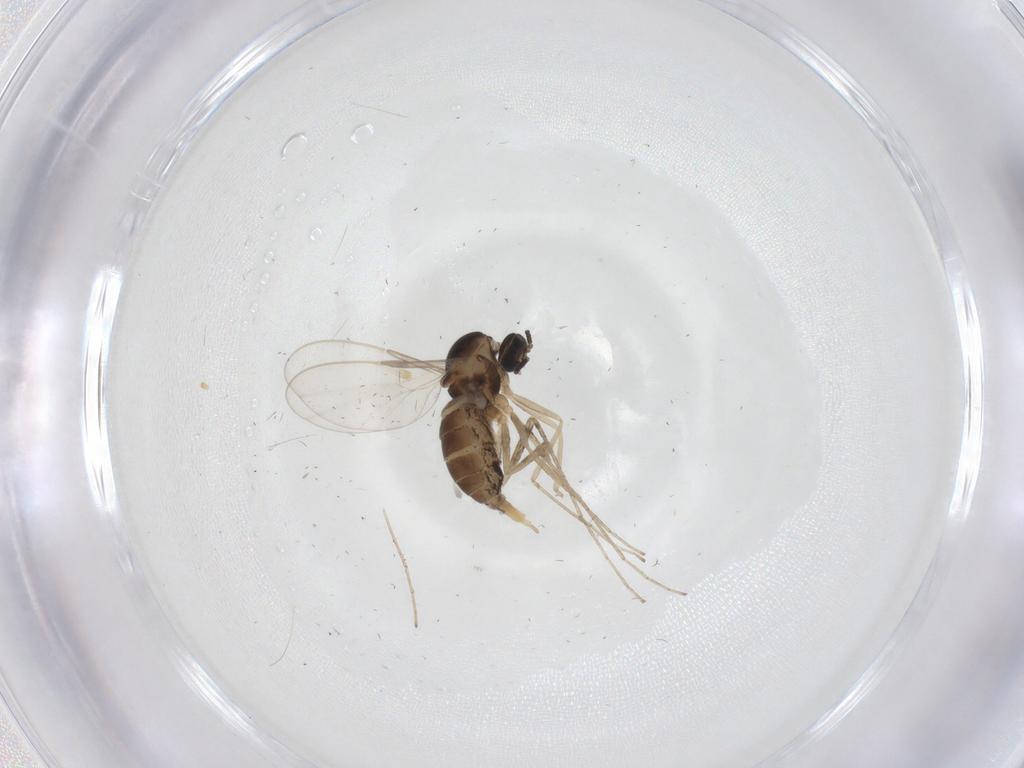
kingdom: Animalia
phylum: Arthropoda
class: Insecta
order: Diptera
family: Cecidomyiidae
